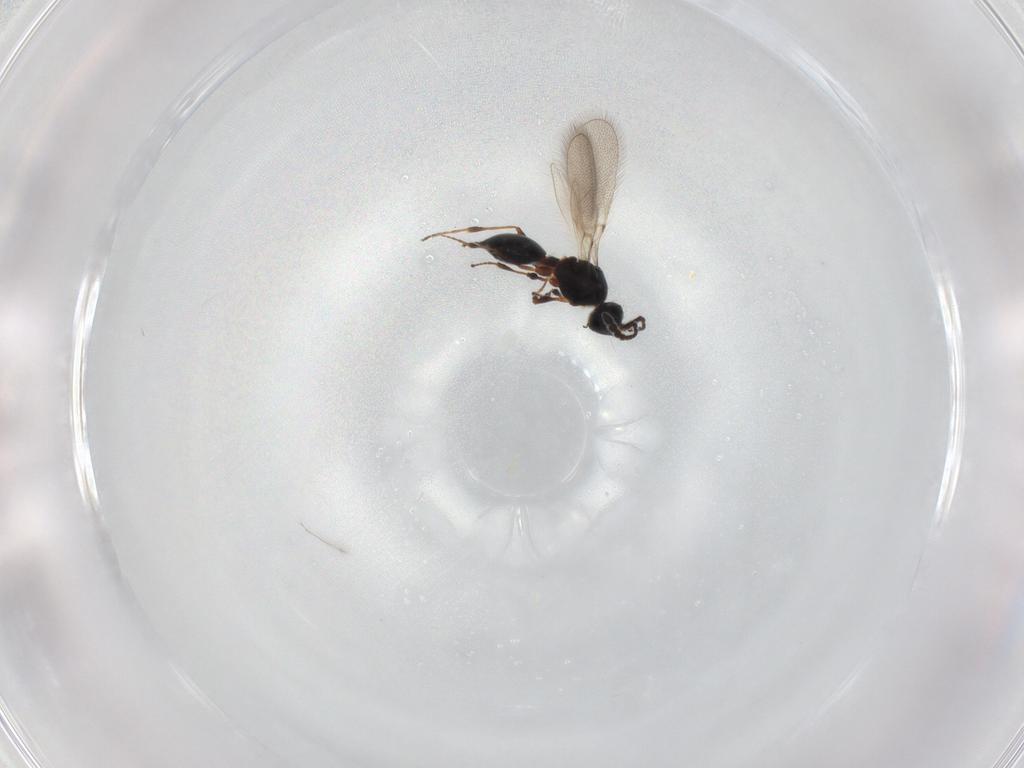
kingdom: Animalia
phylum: Arthropoda
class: Insecta
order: Hymenoptera
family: Diapriidae
